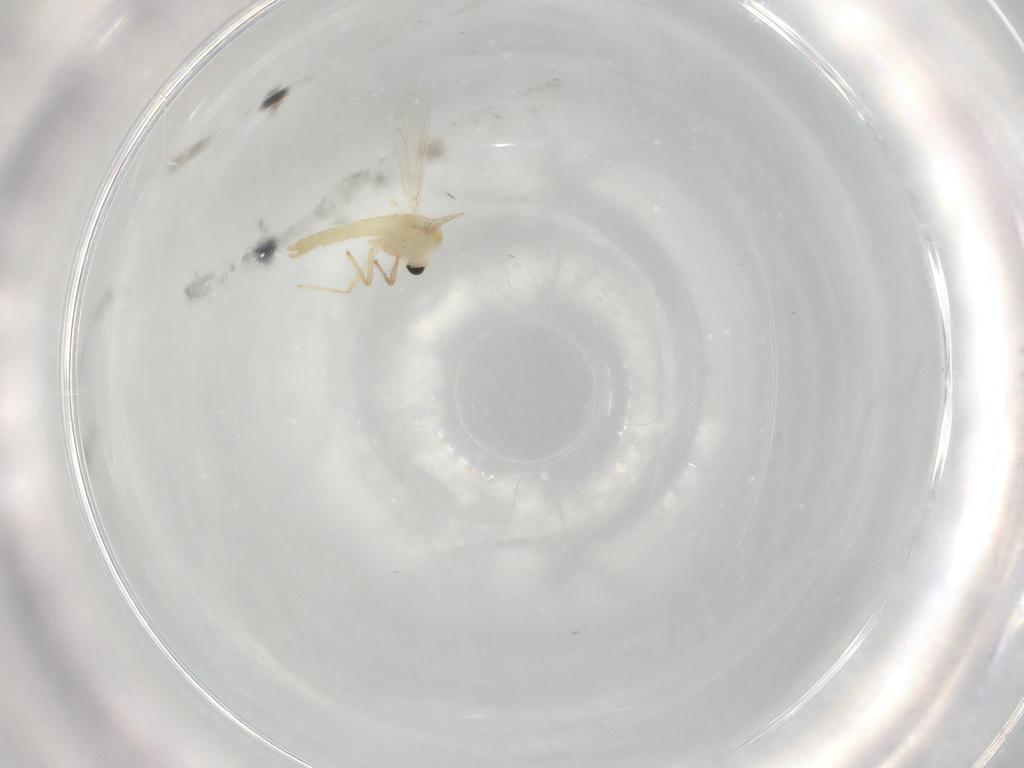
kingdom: Animalia
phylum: Arthropoda
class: Insecta
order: Diptera
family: Chironomidae
